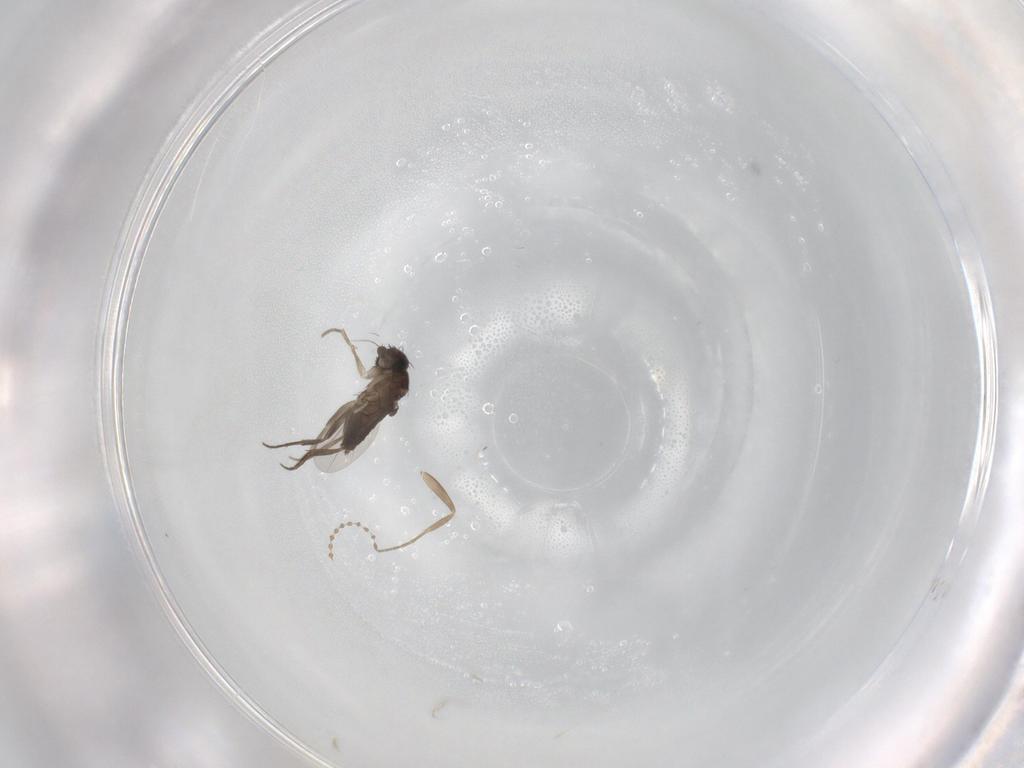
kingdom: Animalia
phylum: Arthropoda
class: Insecta
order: Diptera
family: Phoridae
